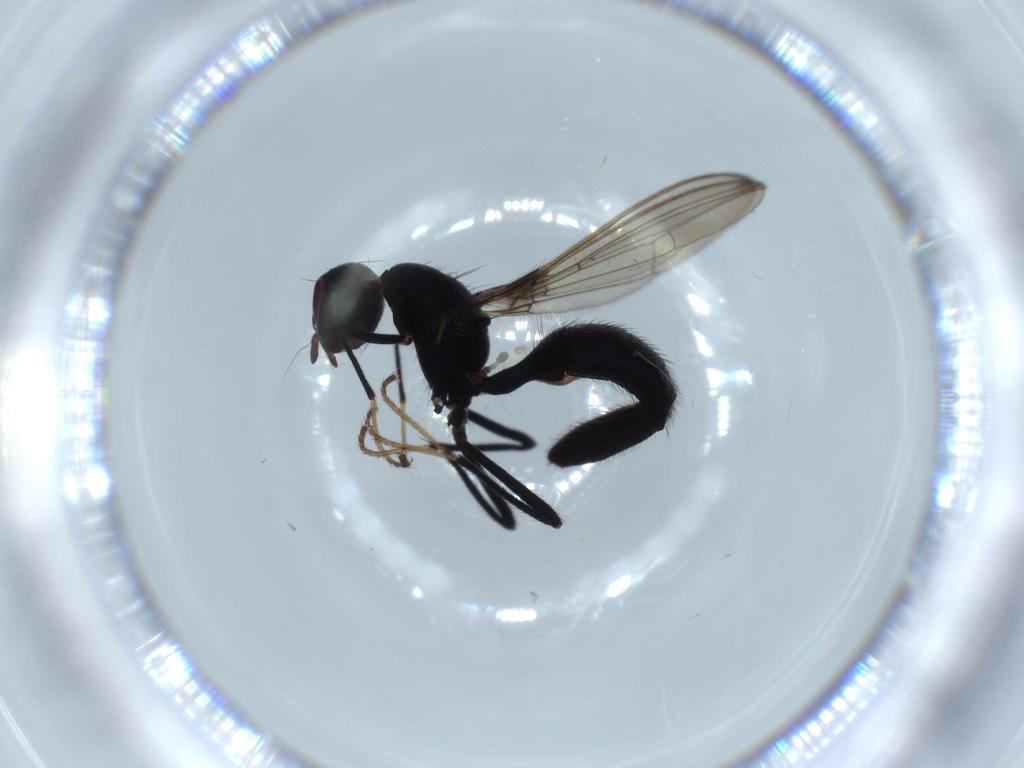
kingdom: Animalia
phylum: Arthropoda
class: Insecta
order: Diptera
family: Richardiidae
